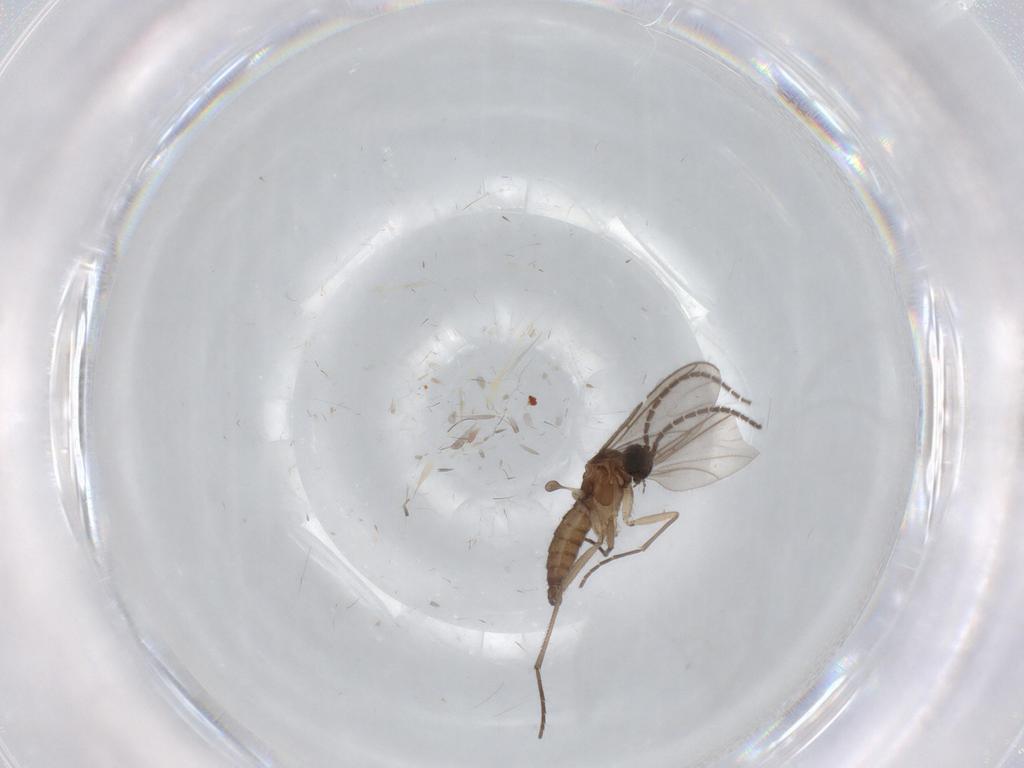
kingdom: Animalia
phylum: Arthropoda
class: Insecta
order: Diptera
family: Sciaridae
